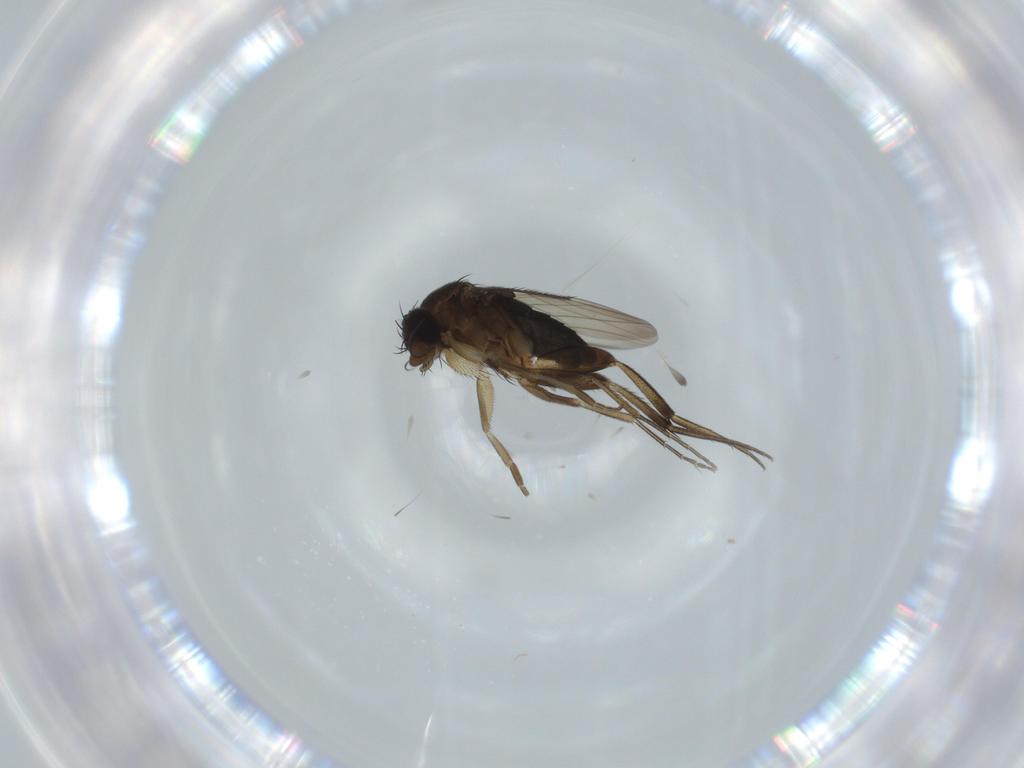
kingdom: Animalia
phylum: Arthropoda
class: Insecta
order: Diptera
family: Phoridae
